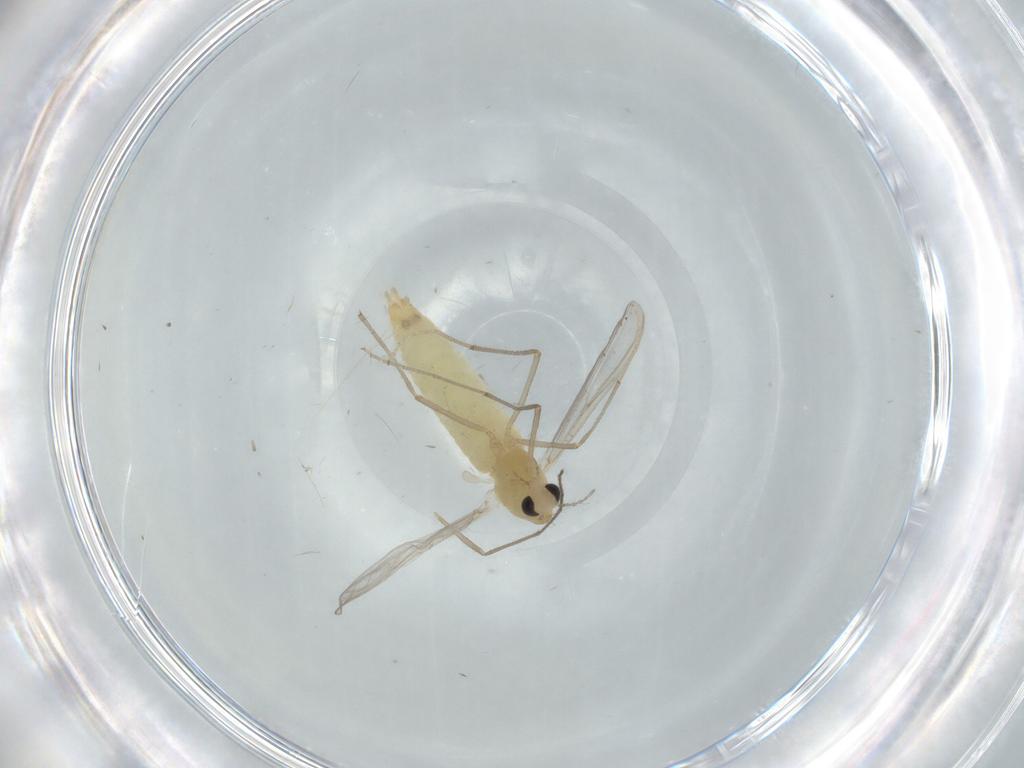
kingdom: Animalia
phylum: Arthropoda
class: Insecta
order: Diptera
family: Chironomidae
